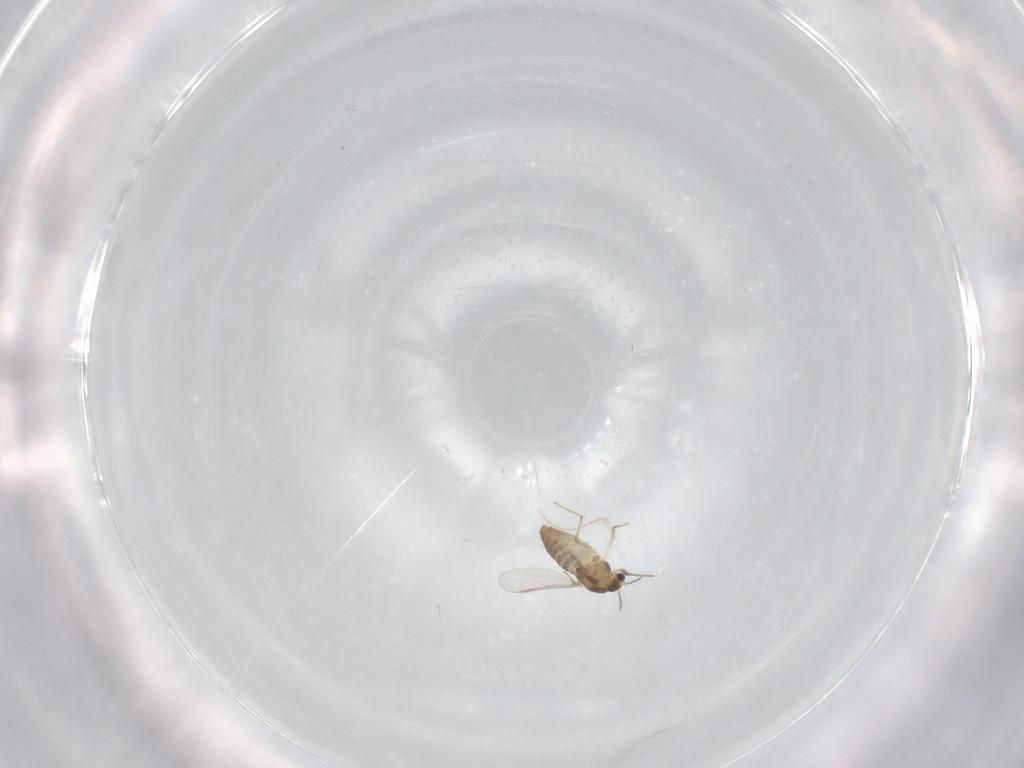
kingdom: Animalia
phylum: Arthropoda
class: Insecta
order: Diptera
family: Chironomidae
